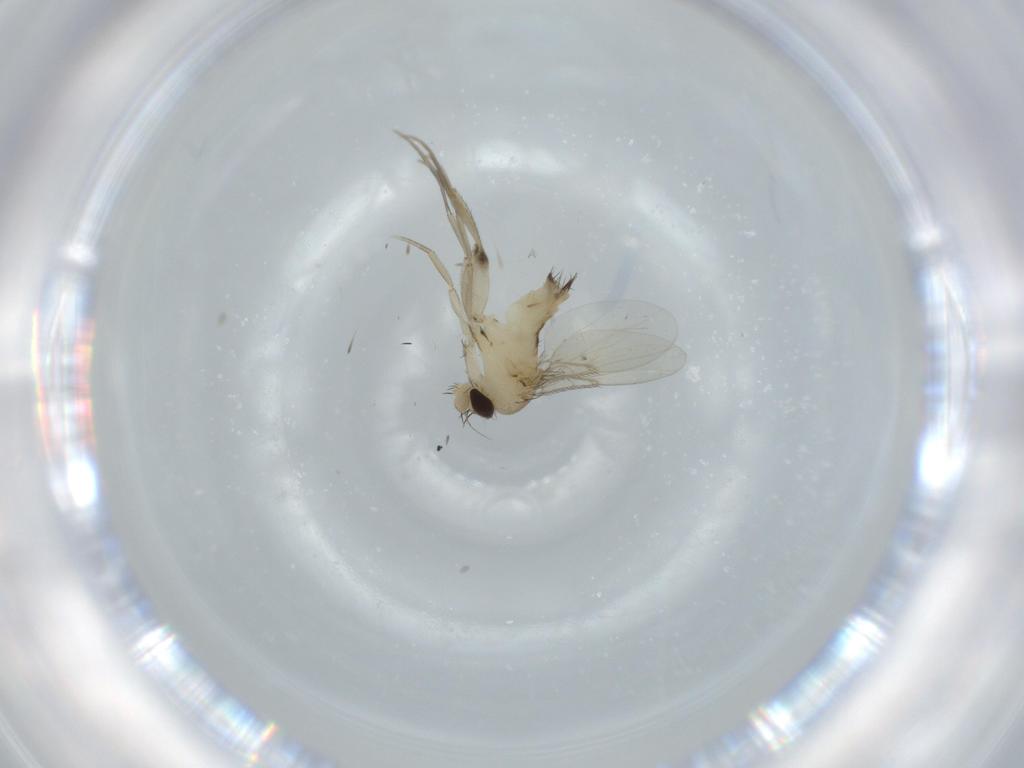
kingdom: Animalia
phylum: Arthropoda
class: Insecta
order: Diptera
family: Phoridae
